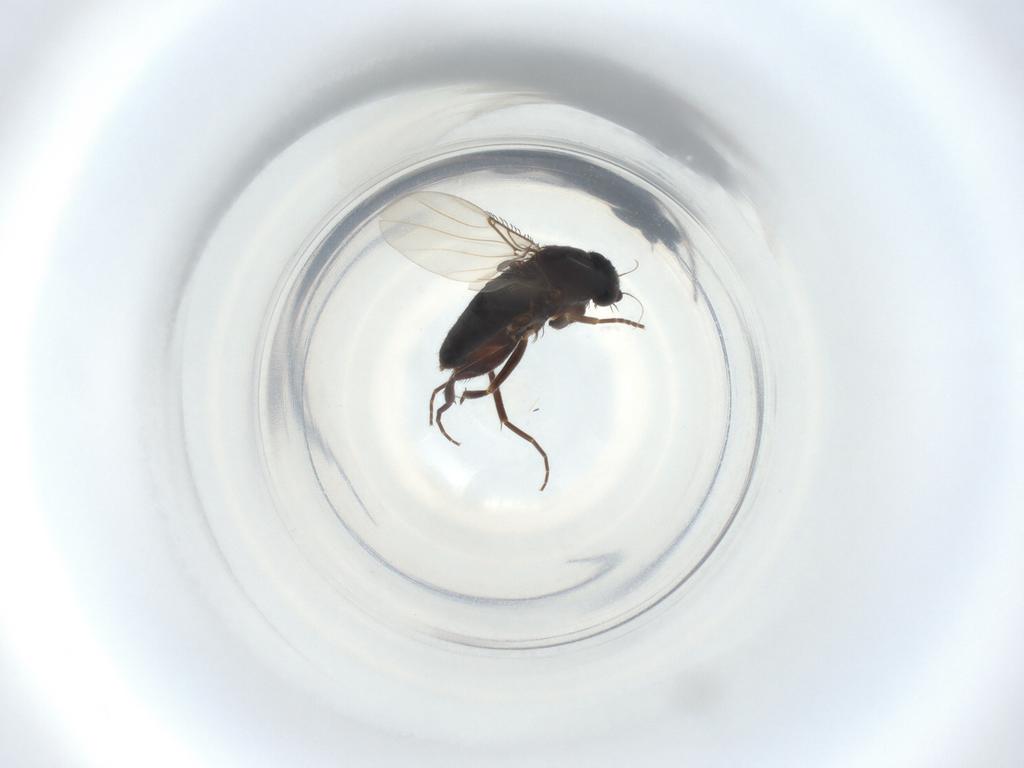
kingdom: Animalia
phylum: Arthropoda
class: Insecta
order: Diptera
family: Phoridae
